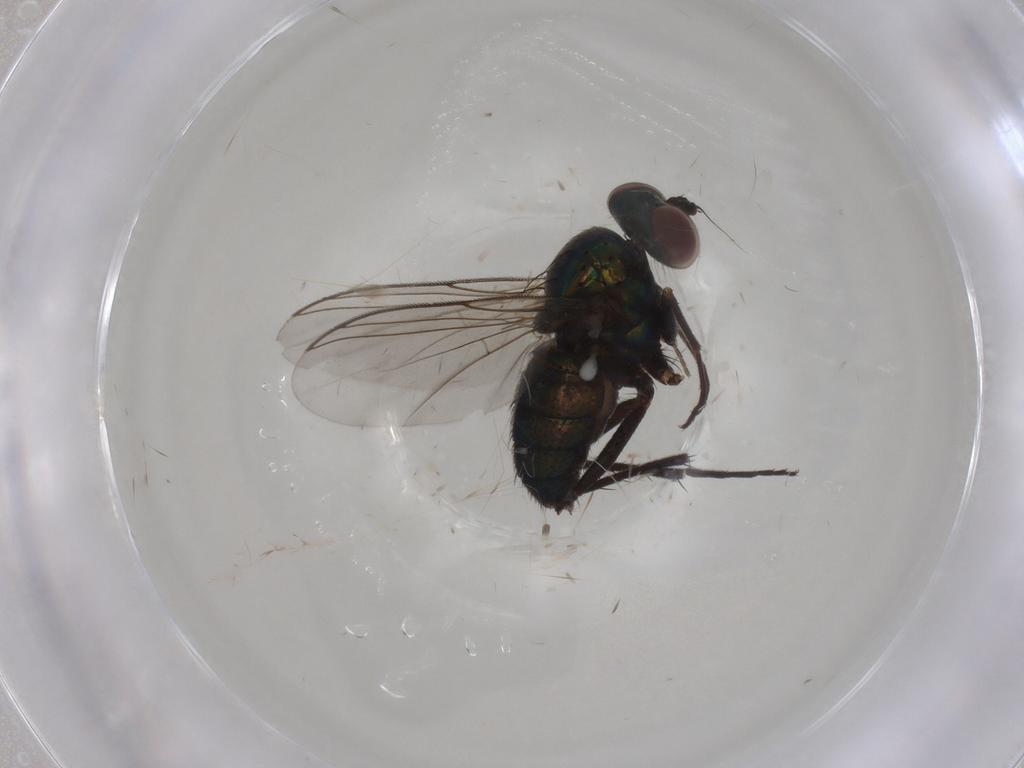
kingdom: Animalia
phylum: Arthropoda
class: Insecta
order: Diptera
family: Dolichopodidae
